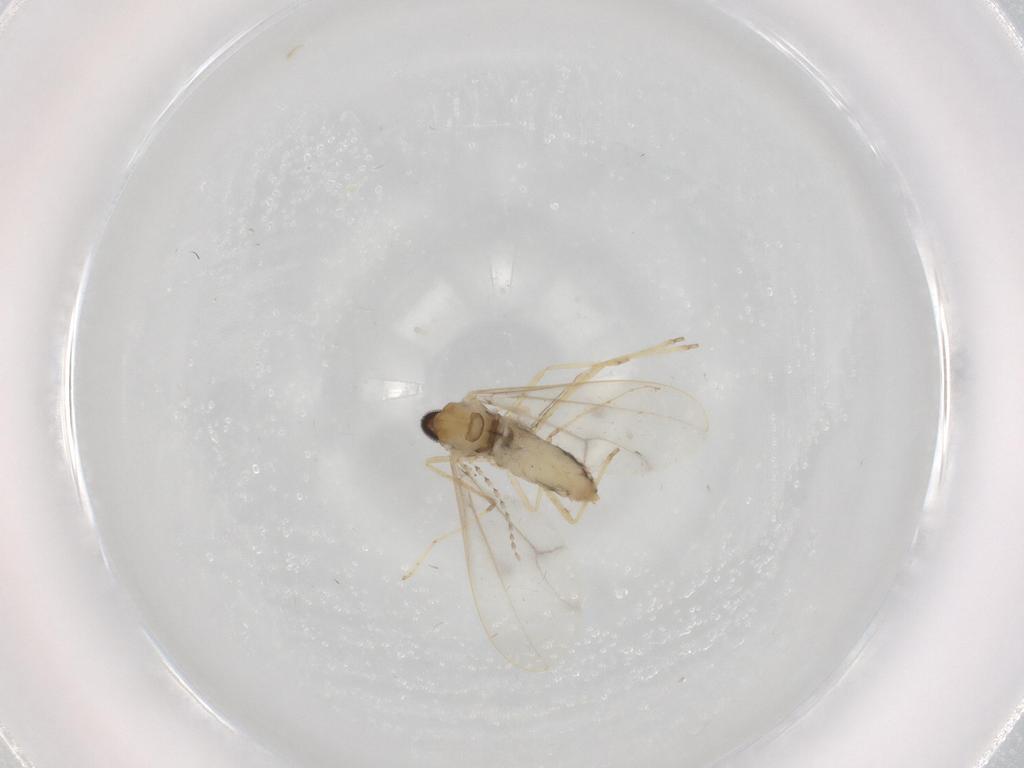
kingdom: Animalia
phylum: Arthropoda
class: Insecta
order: Diptera
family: Cecidomyiidae
